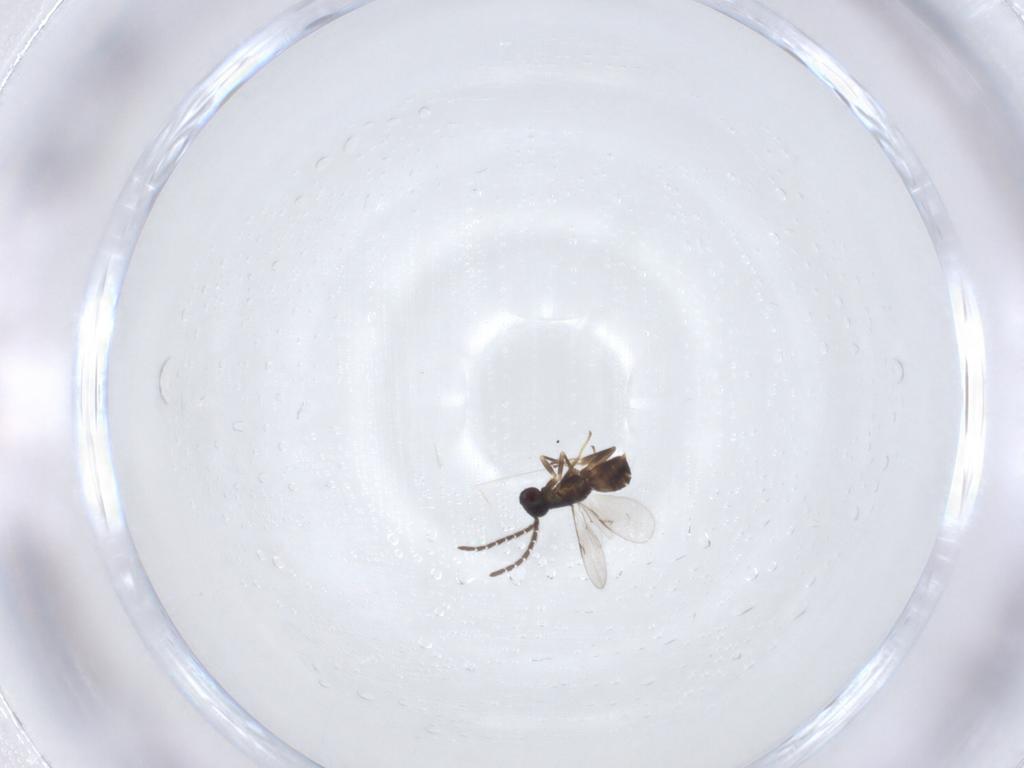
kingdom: Animalia
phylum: Arthropoda
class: Insecta
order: Hymenoptera
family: Encyrtidae
